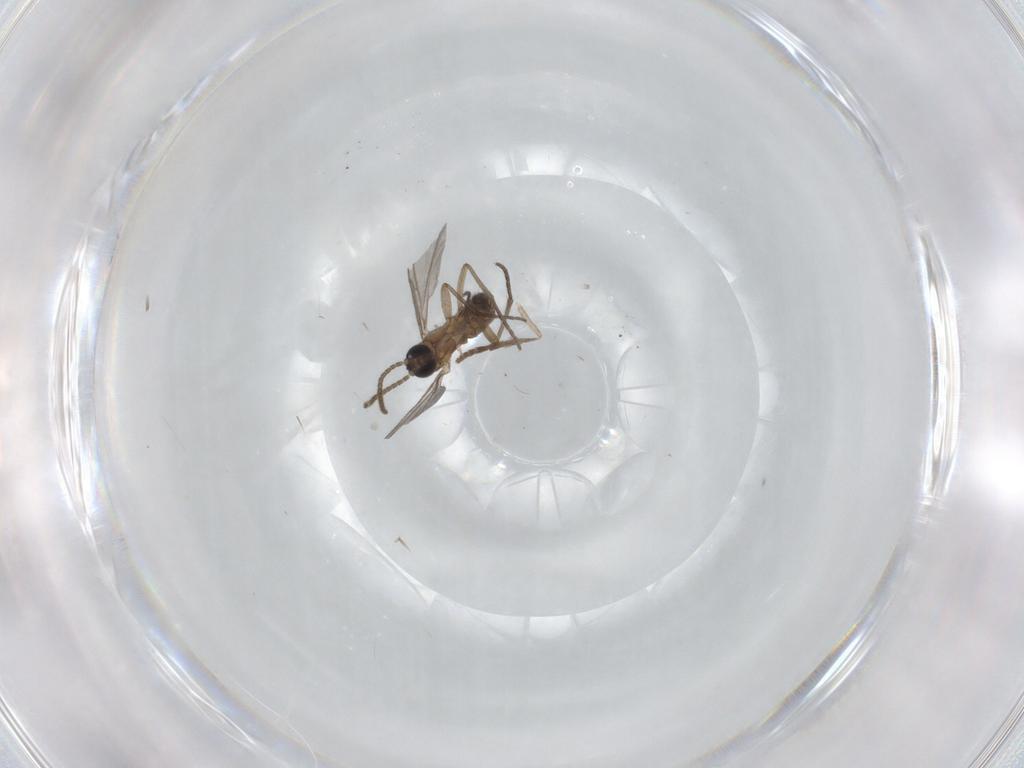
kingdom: Animalia
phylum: Arthropoda
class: Insecta
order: Diptera
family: Sciaridae
